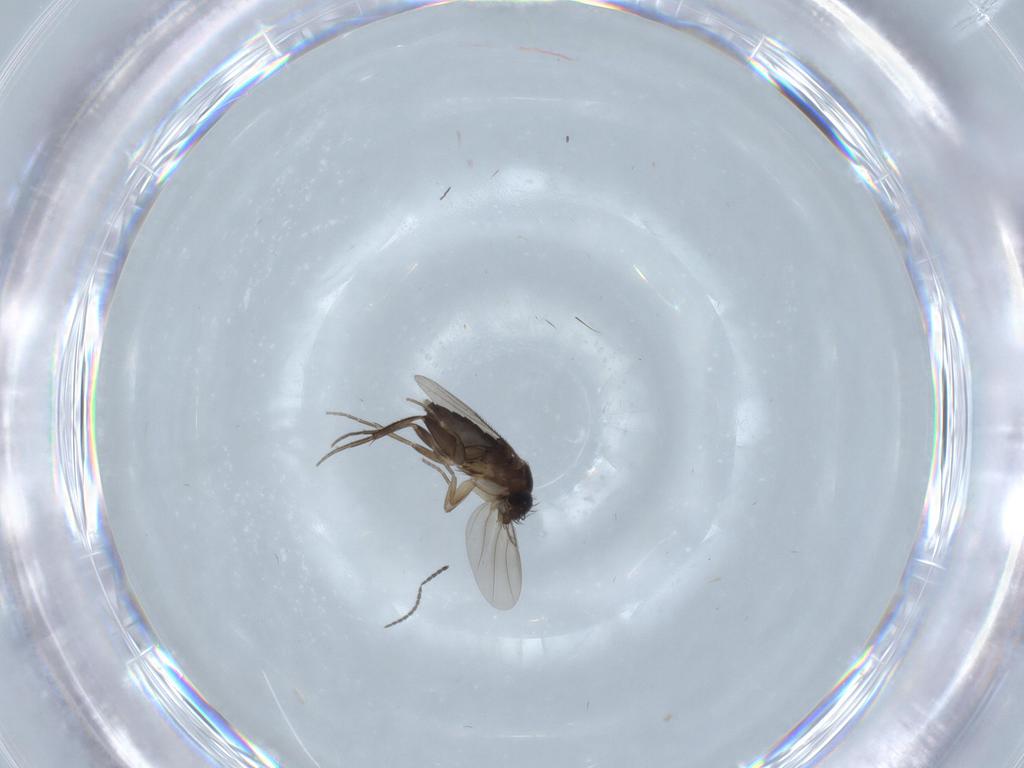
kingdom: Animalia
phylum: Arthropoda
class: Insecta
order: Diptera
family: Phoridae
